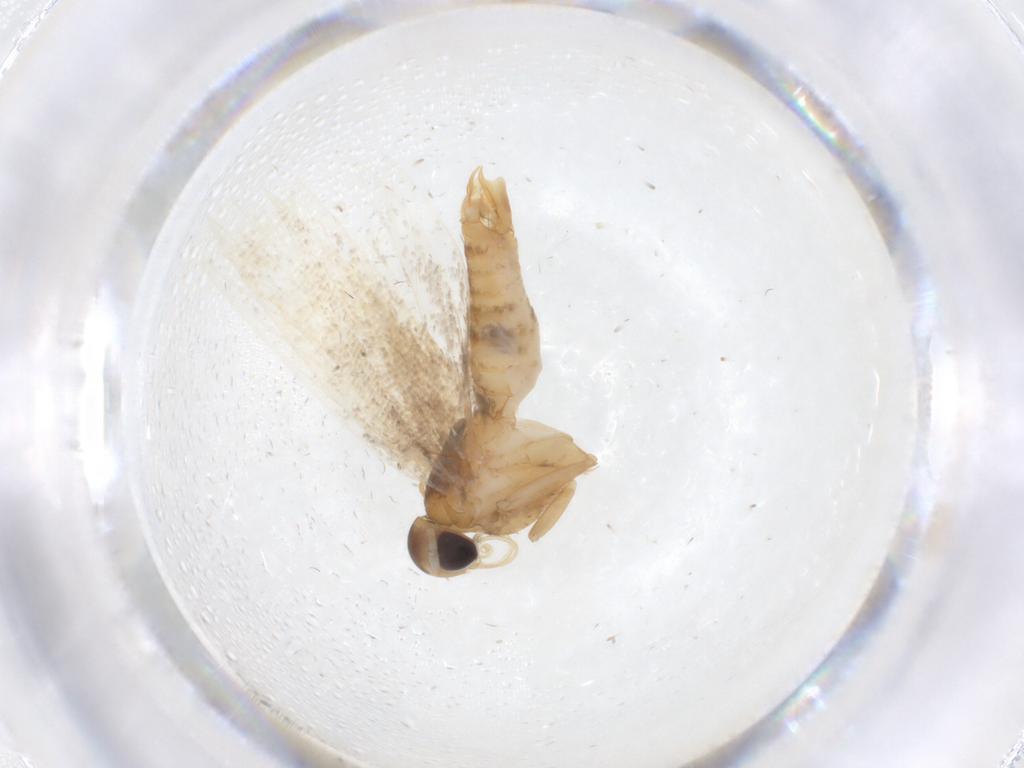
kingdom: Animalia
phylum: Arthropoda
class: Insecta
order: Lepidoptera
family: Oecophoridae
